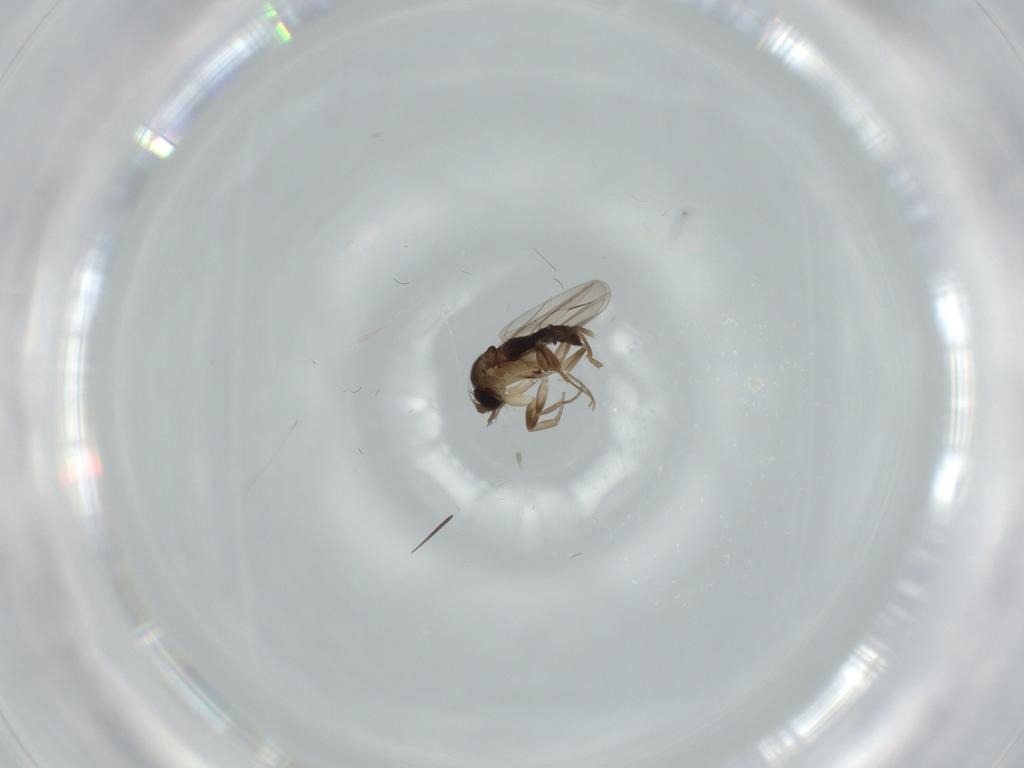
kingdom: Animalia
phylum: Arthropoda
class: Insecta
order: Diptera
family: Phoridae
